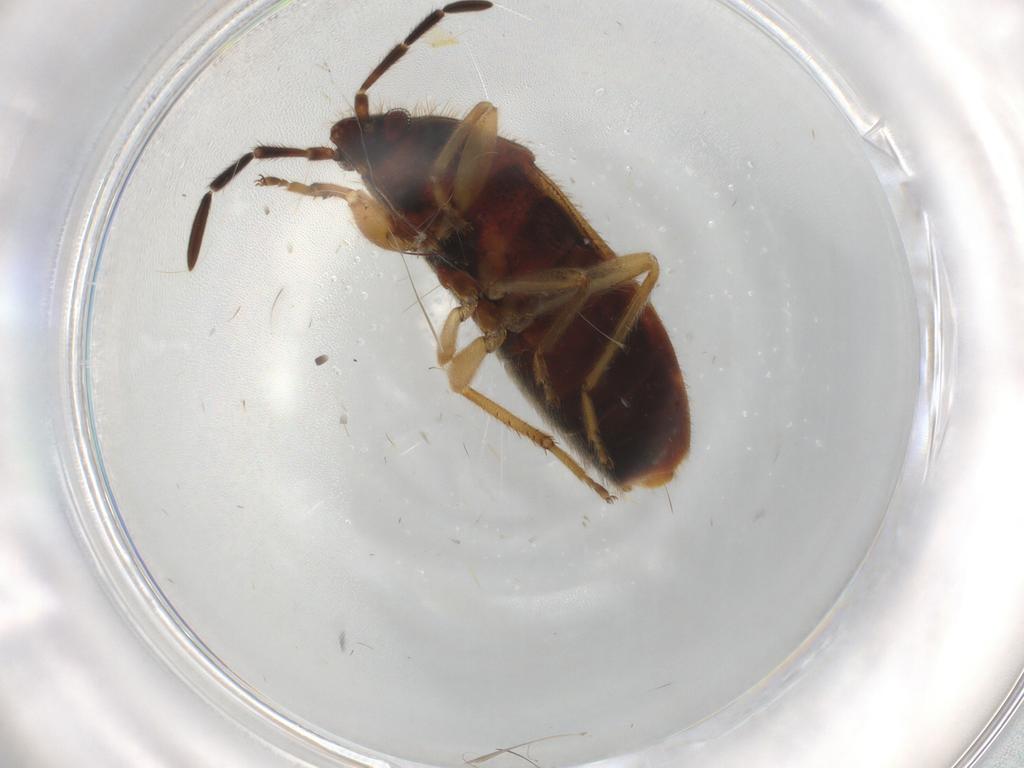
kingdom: Animalia
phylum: Arthropoda
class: Insecta
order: Hemiptera
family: Rhyparochromidae
